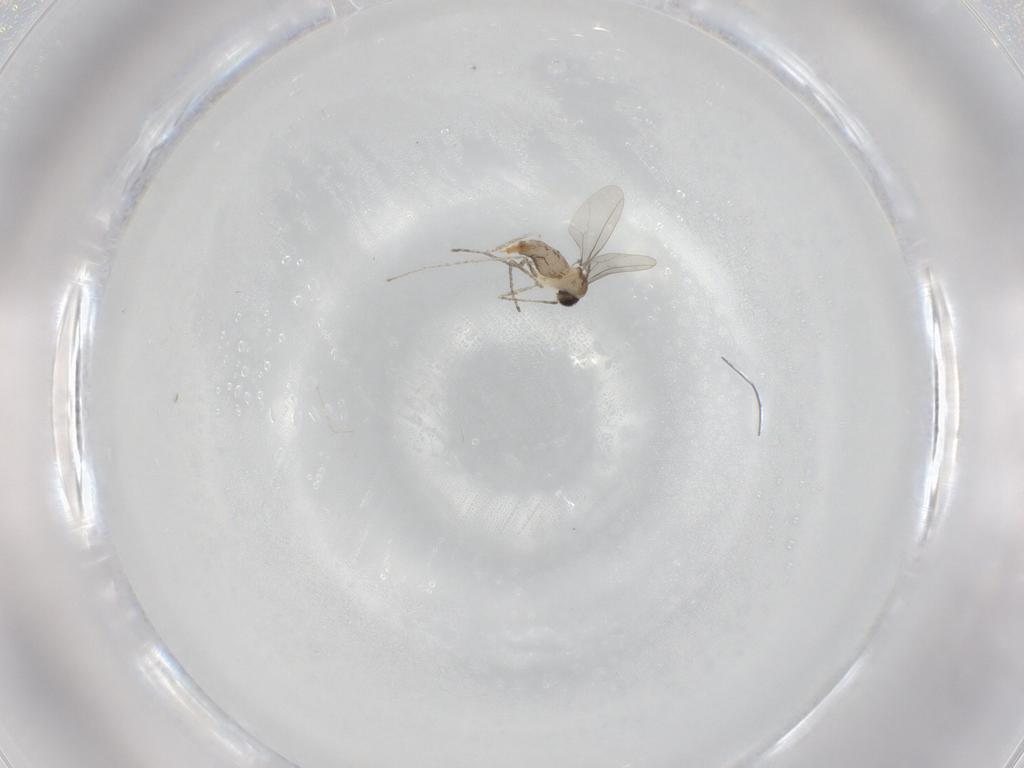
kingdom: Animalia
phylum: Arthropoda
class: Insecta
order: Diptera
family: Cecidomyiidae
